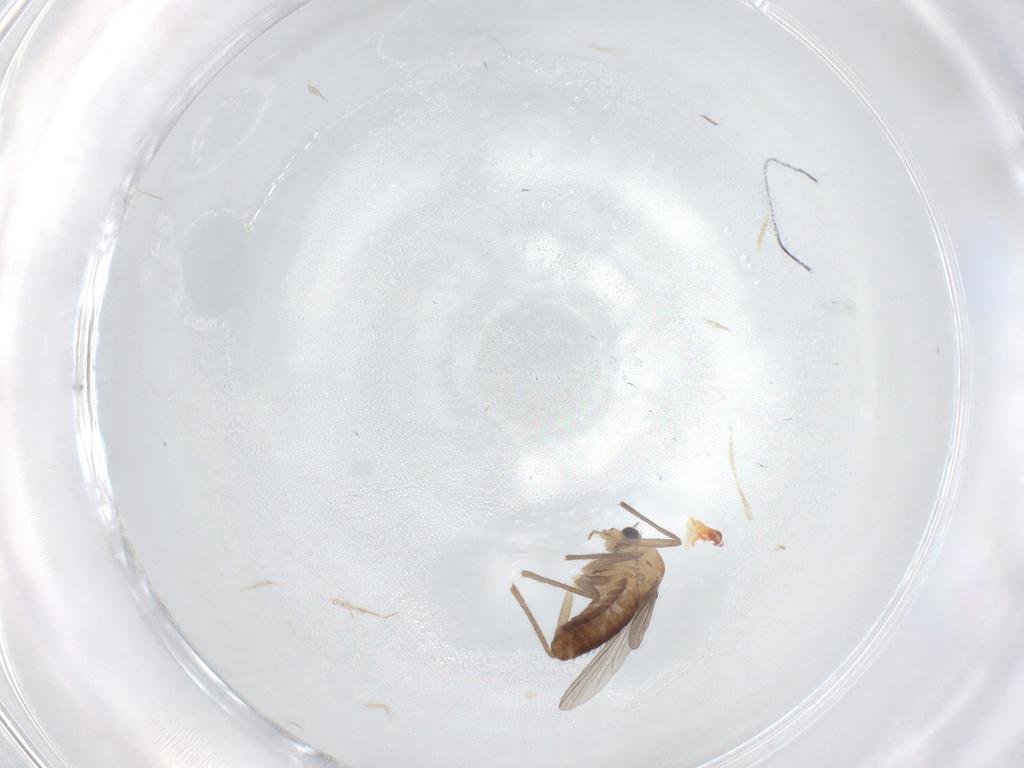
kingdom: Animalia
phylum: Arthropoda
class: Insecta
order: Diptera
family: Chironomidae
